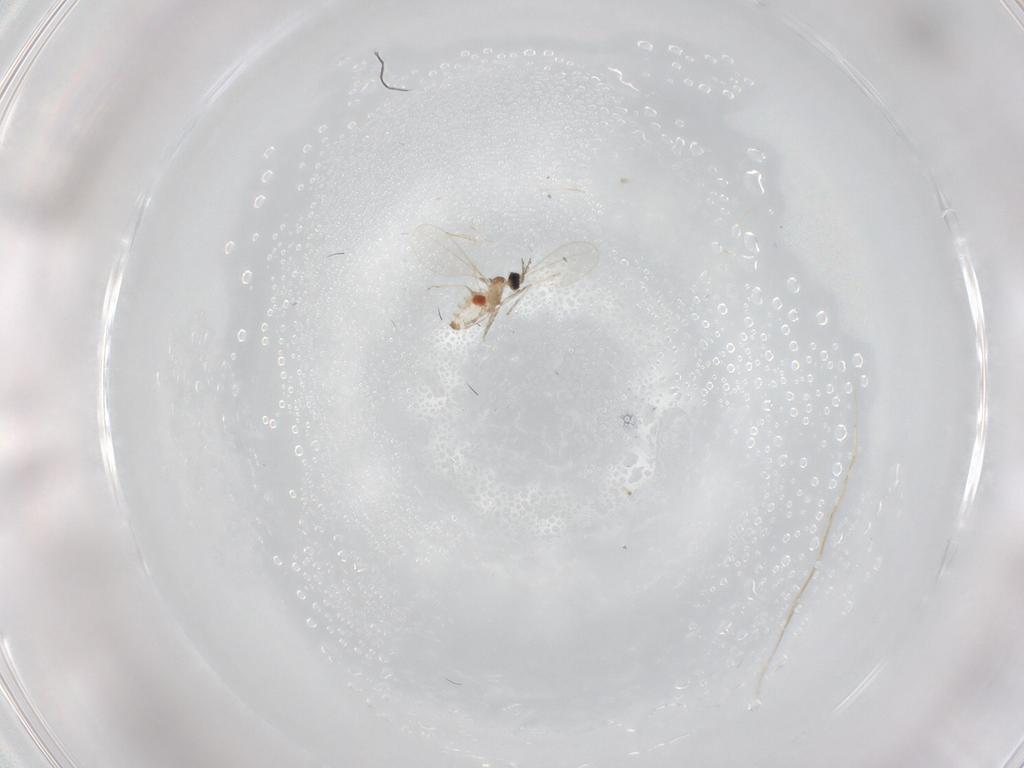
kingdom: Animalia
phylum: Arthropoda
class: Insecta
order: Diptera
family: Cecidomyiidae
